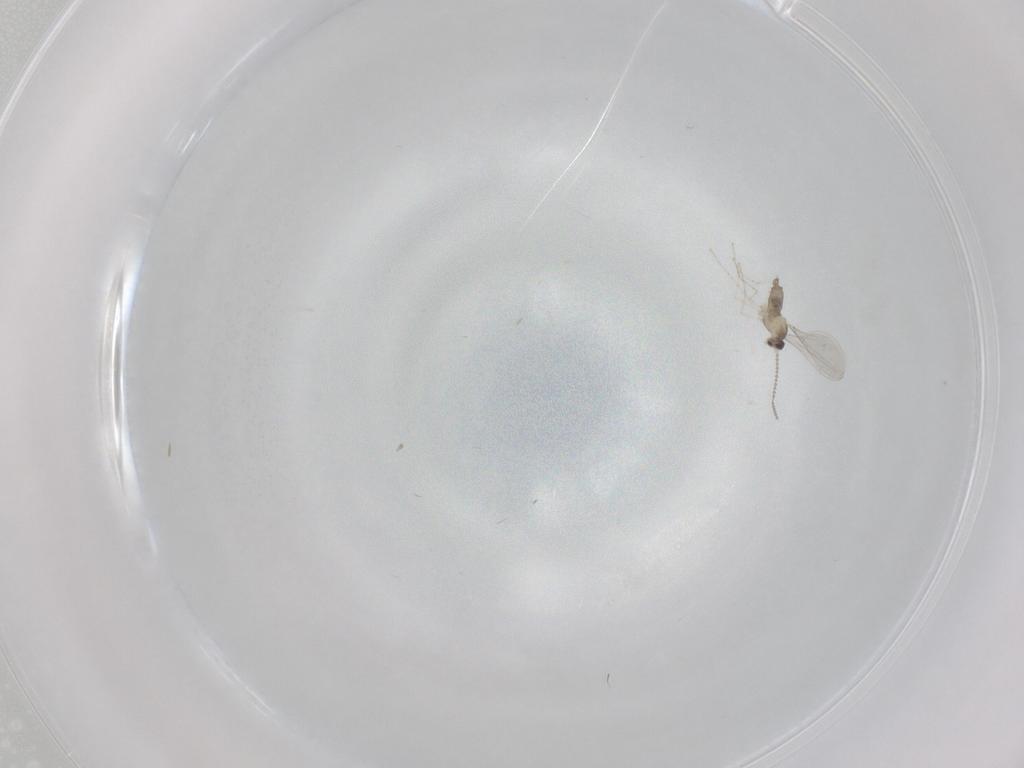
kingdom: Animalia
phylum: Arthropoda
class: Insecta
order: Diptera
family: Cecidomyiidae
